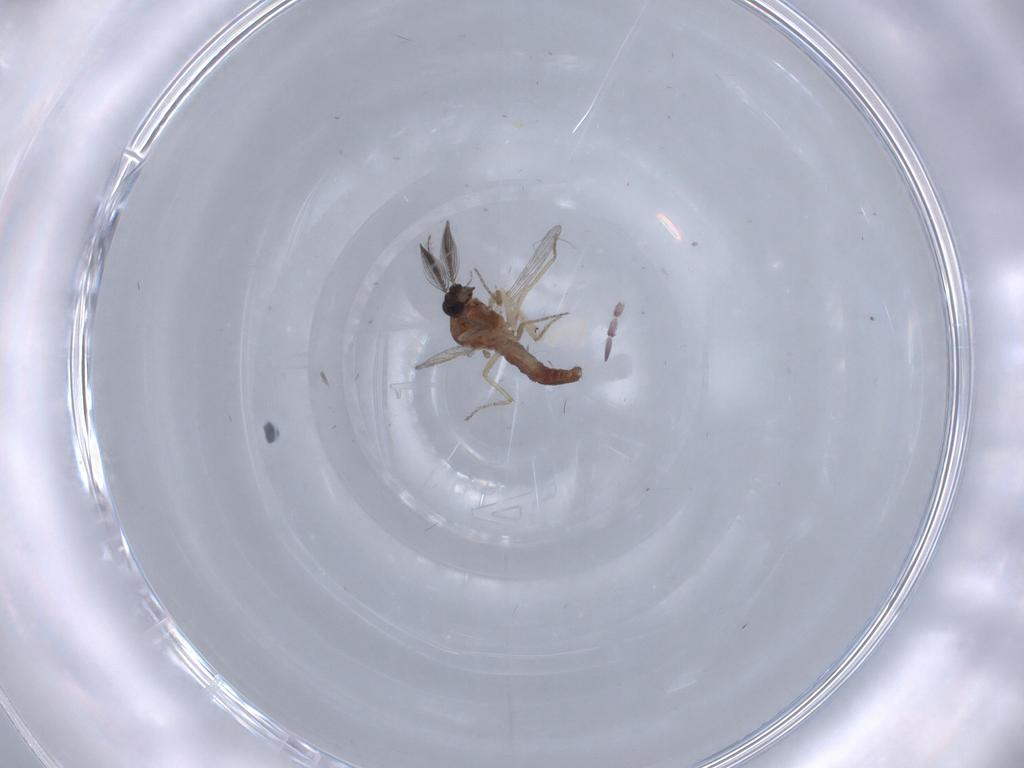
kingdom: Animalia
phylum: Arthropoda
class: Insecta
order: Diptera
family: Ceratopogonidae
